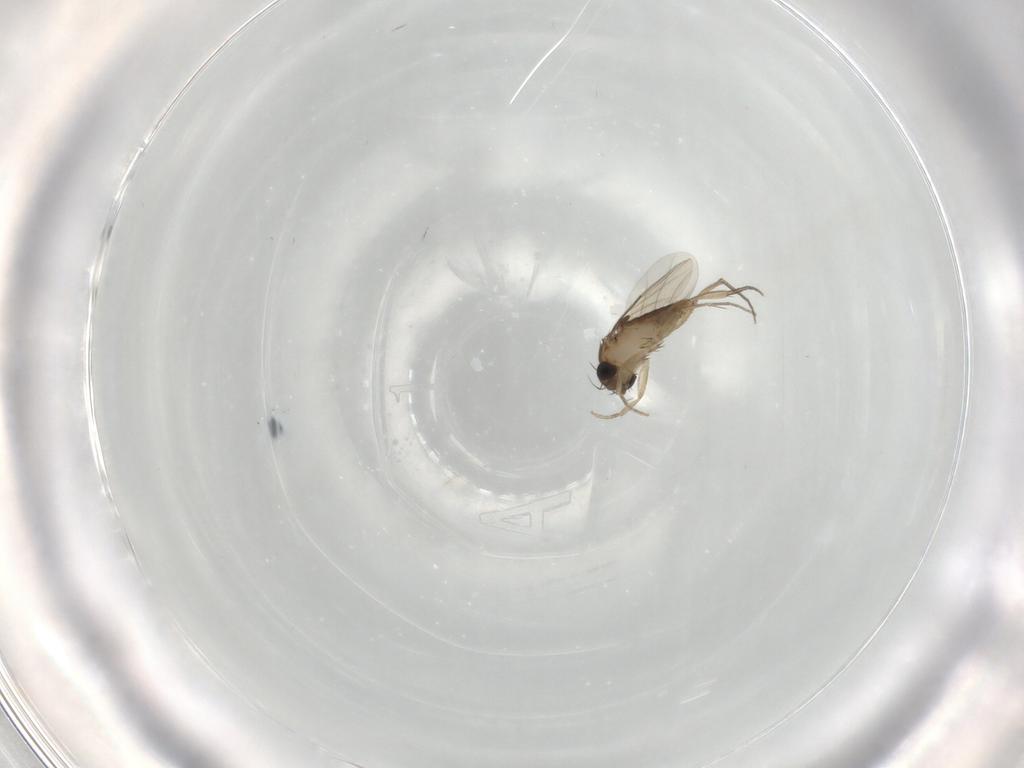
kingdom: Animalia
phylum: Arthropoda
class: Insecta
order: Diptera
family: Phoridae
